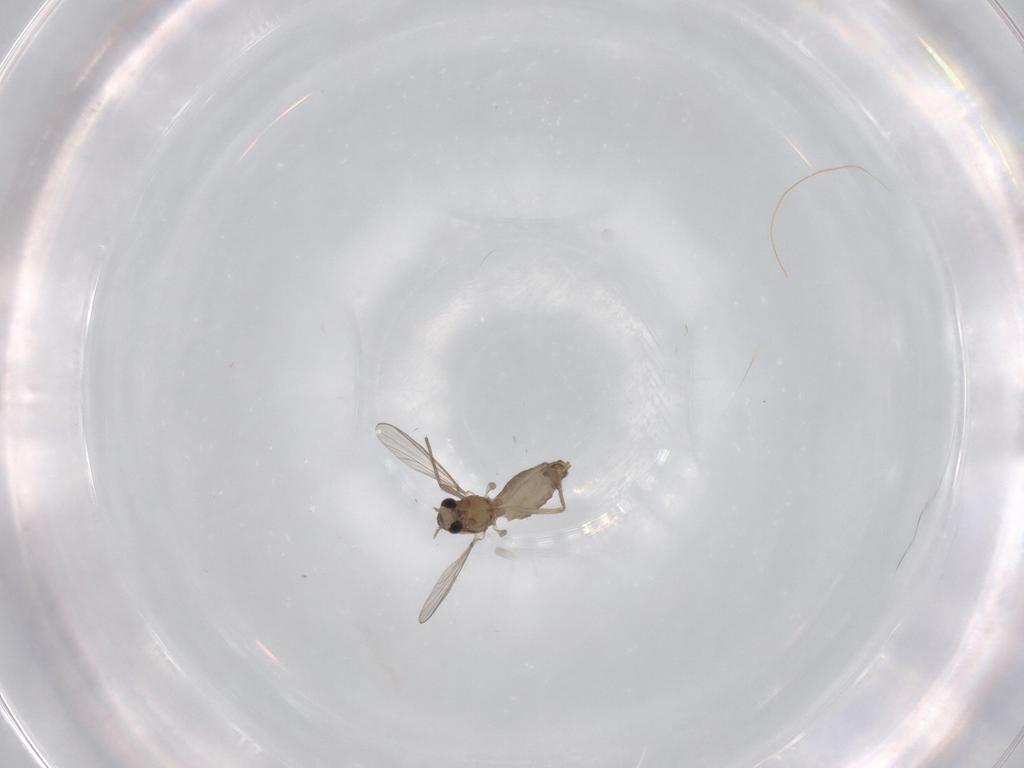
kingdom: Animalia
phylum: Arthropoda
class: Insecta
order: Diptera
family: Chironomidae
